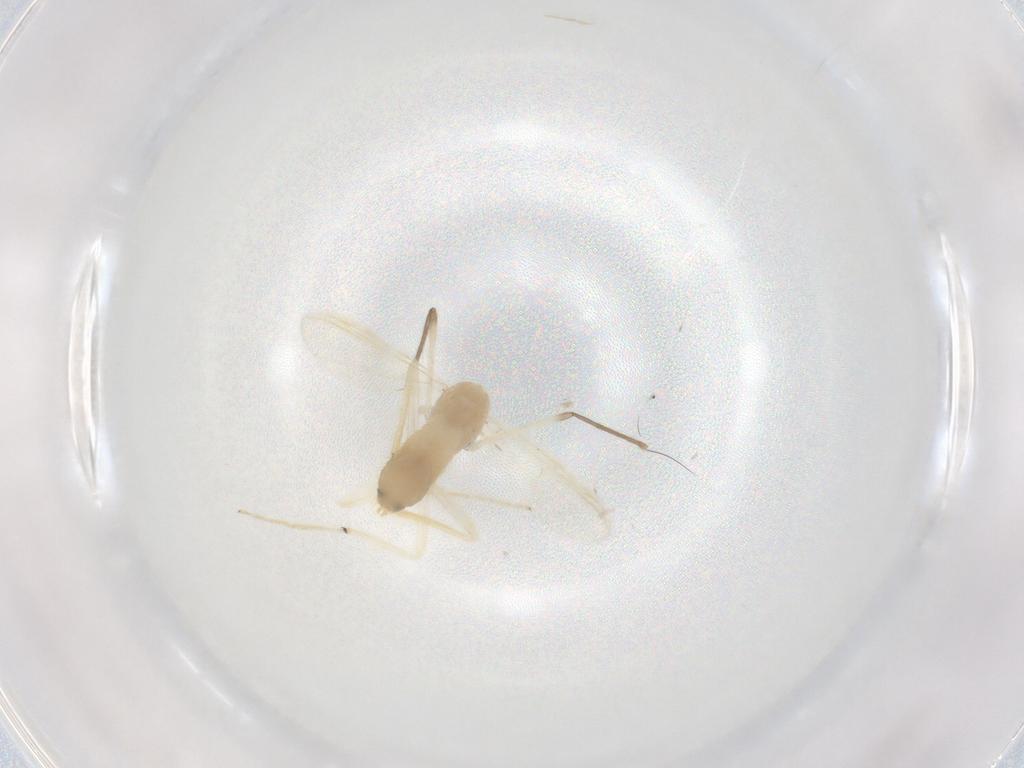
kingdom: Animalia
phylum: Arthropoda
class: Insecta
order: Diptera
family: Chironomidae
